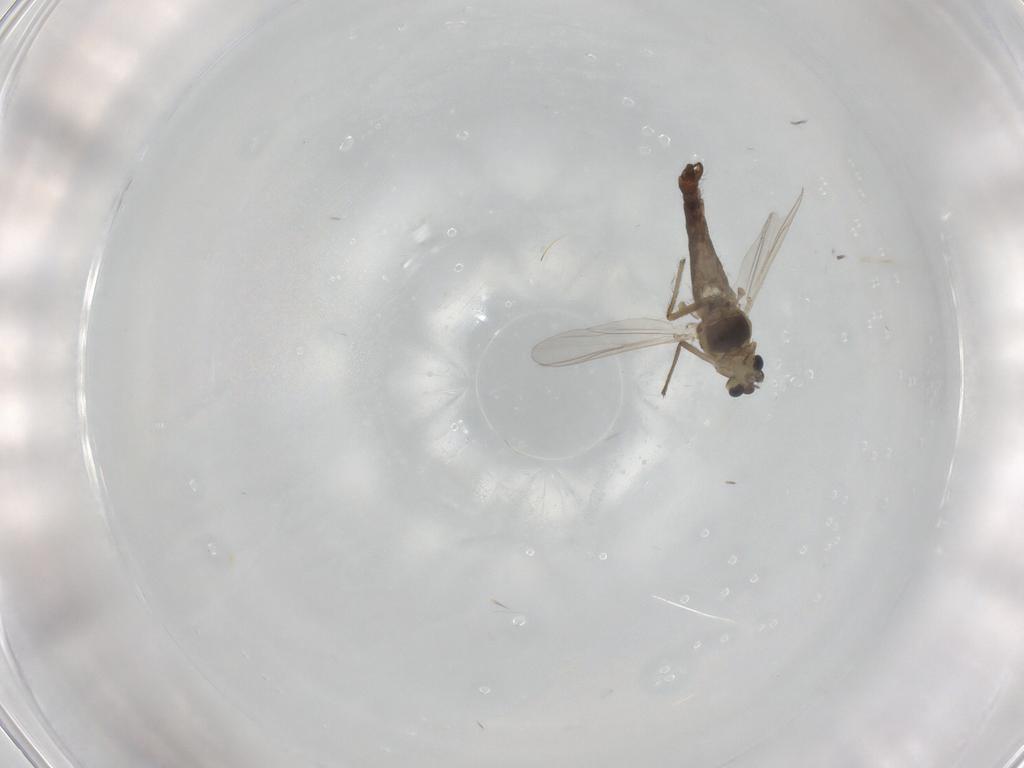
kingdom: Animalia
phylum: Arthropoda
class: Insecta
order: Diptera
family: Chironomidae
